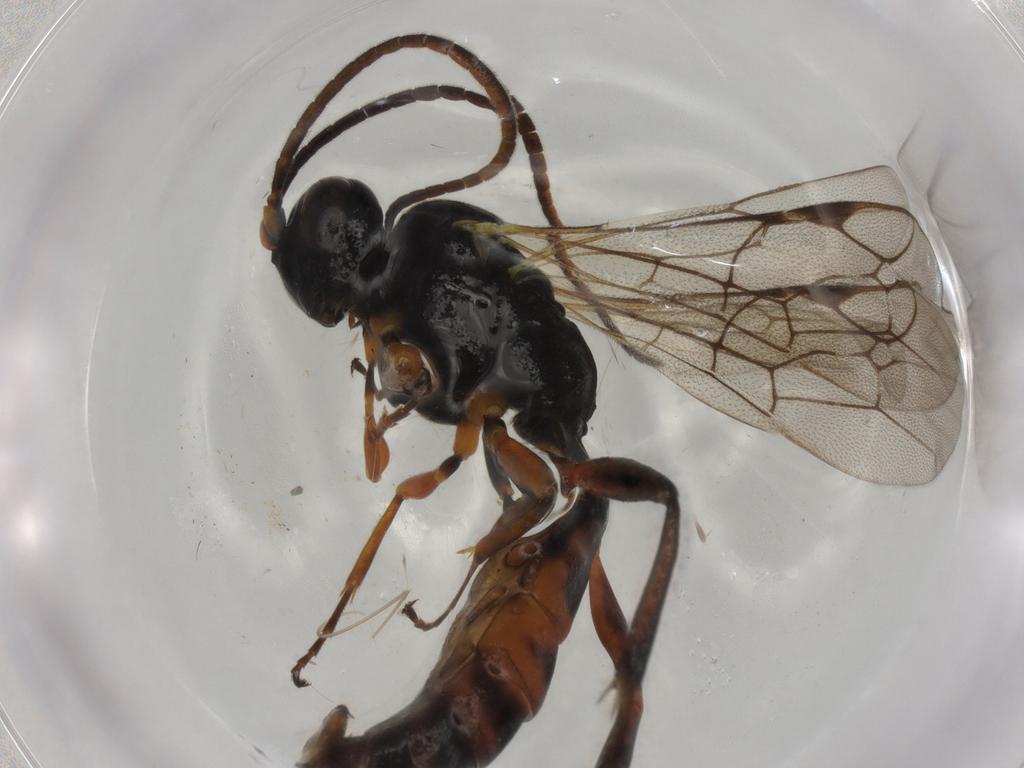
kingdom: Animalia
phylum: Arthropoda
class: Insecta
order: Hymenoptera
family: Ichneumonidae
